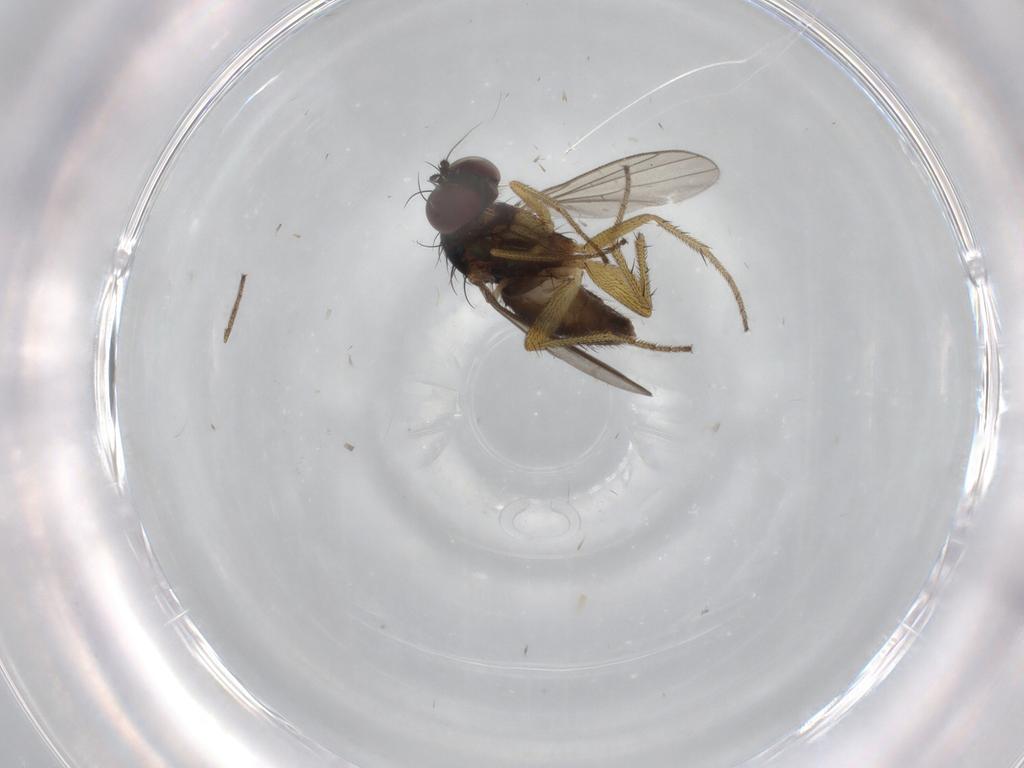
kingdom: Animalia
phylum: Arthropoda
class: Insecta
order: Diptera
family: Dolichopodidae
